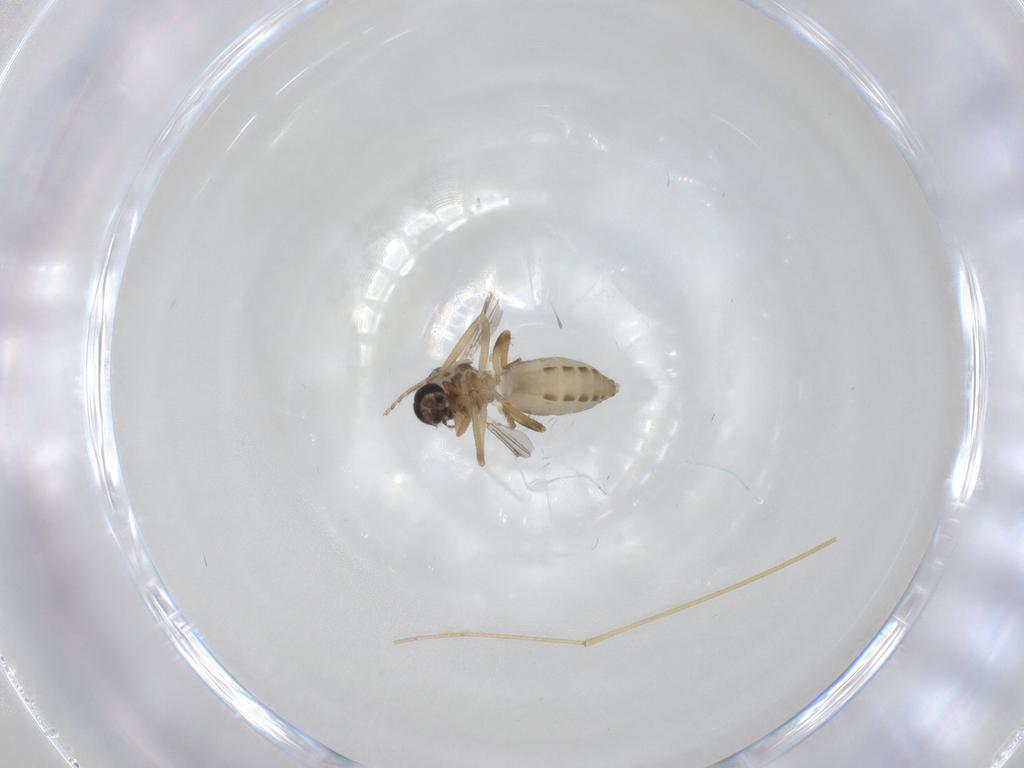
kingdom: Animalia
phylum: Arthropoda
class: Insecta
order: Diptera
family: Ceratopogonidae
